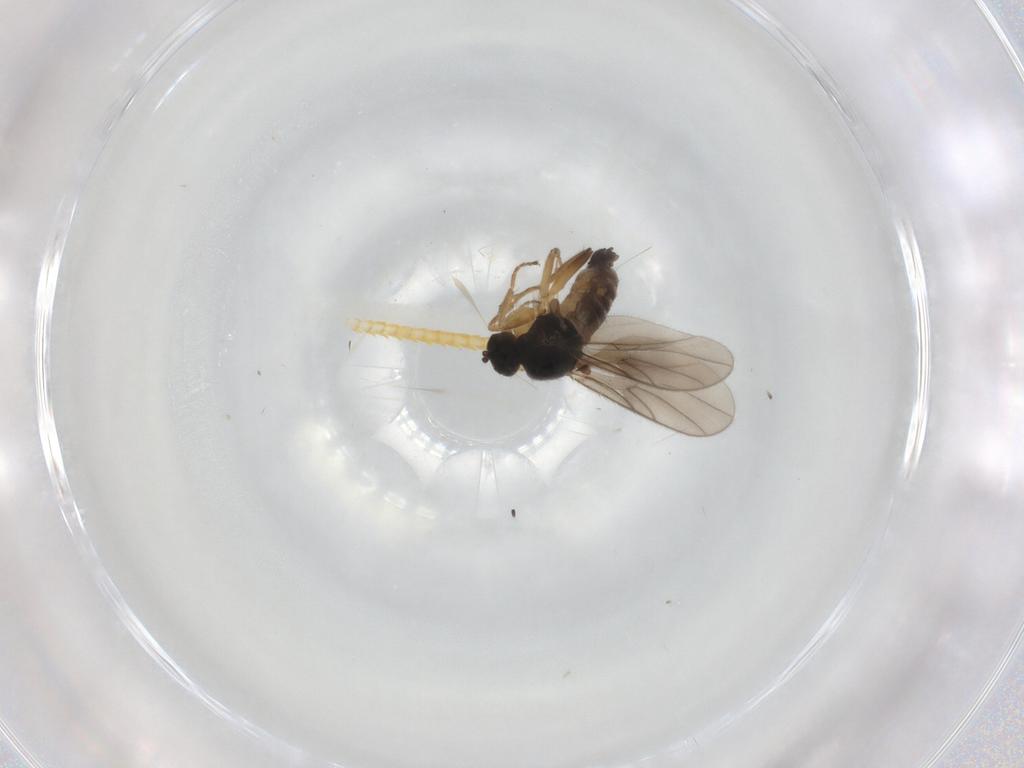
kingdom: Animalia
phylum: Arthropoda
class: Insecta
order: Diptera
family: Hybotidae
